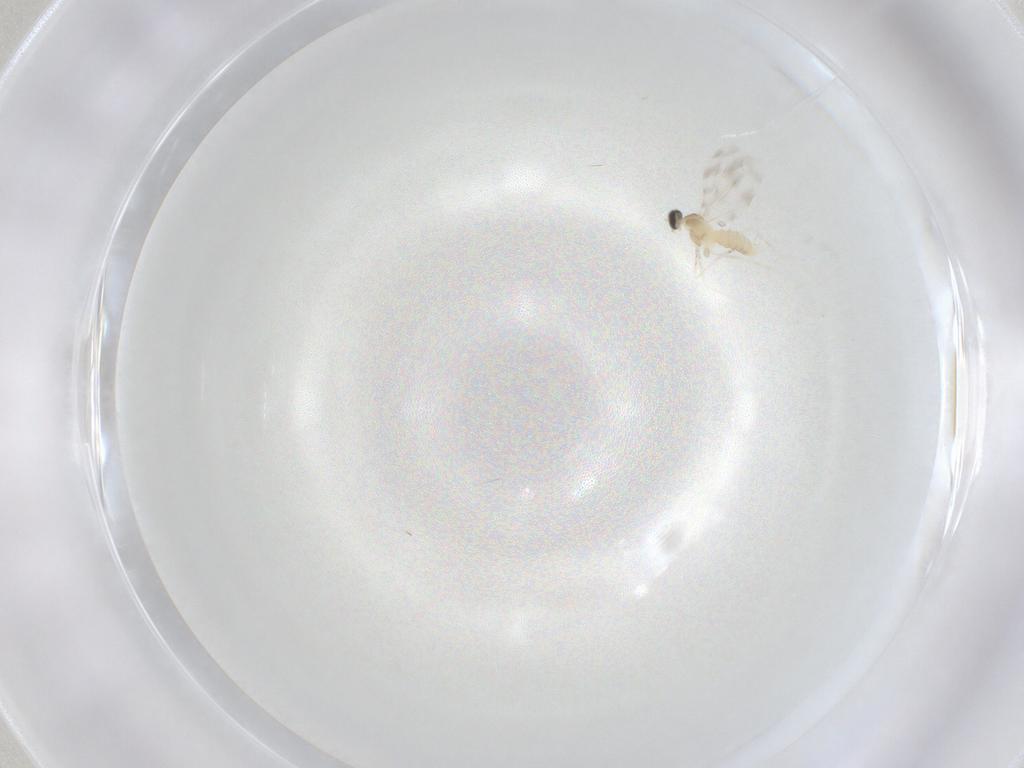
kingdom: Animalia
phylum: Arthropoda
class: Insecta
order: Diptera
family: Cecidomyiidae
